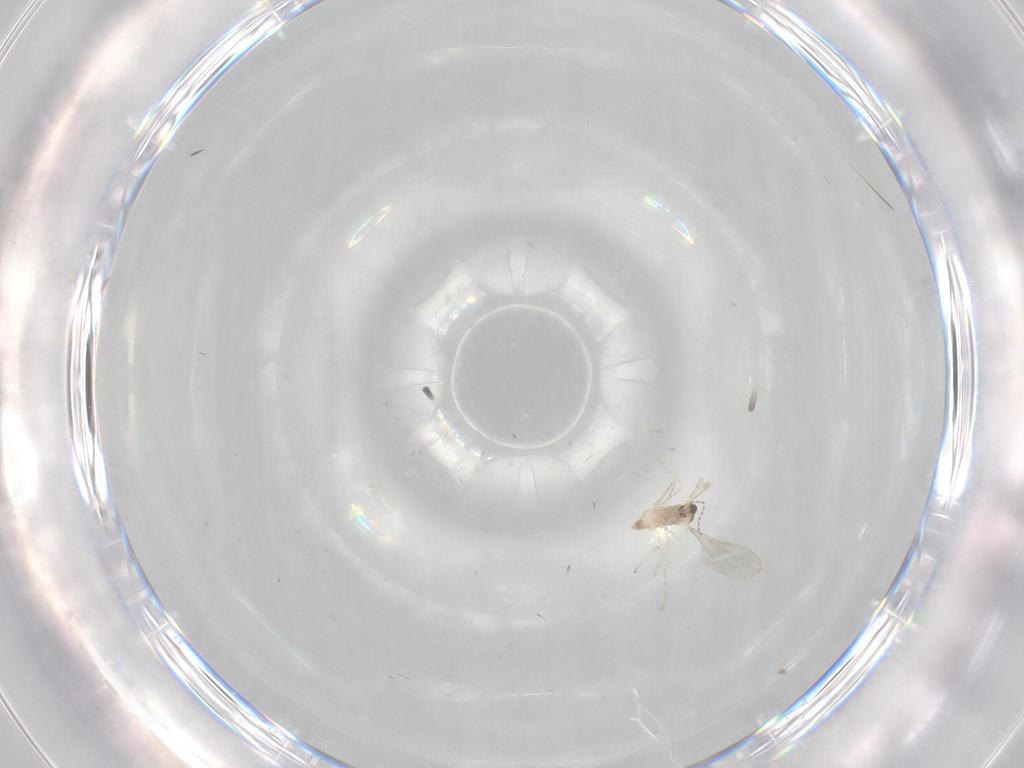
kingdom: Animalia
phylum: Arthropoda
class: Insecta
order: Diptera
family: Cecidomyiidae
